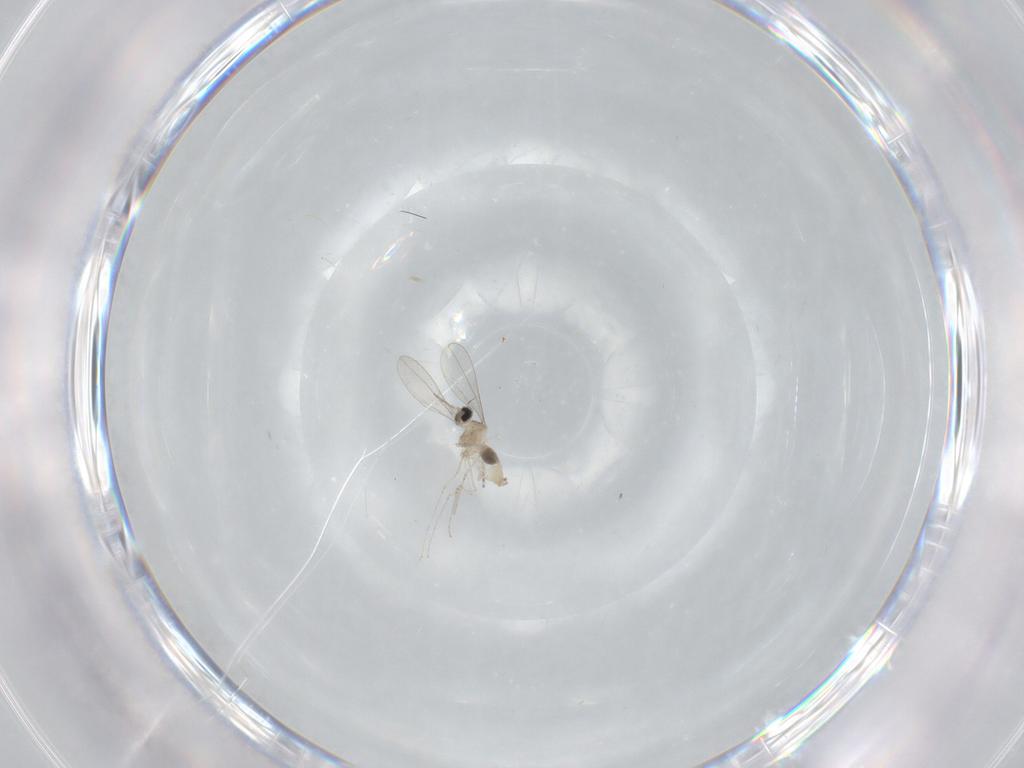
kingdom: Animalia
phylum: Arthropoda
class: Insecta
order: Diptera
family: Cecidomyiidae
